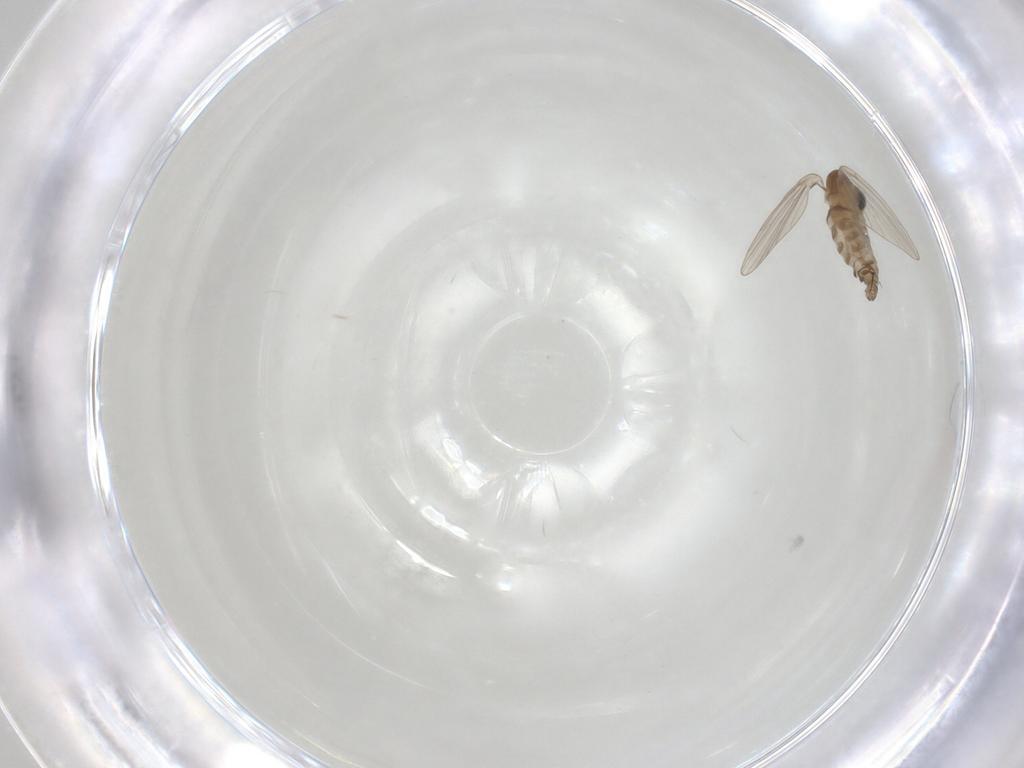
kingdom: Animalia
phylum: Arthropoda
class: Insecta
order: Diptera
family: Psychodidae
